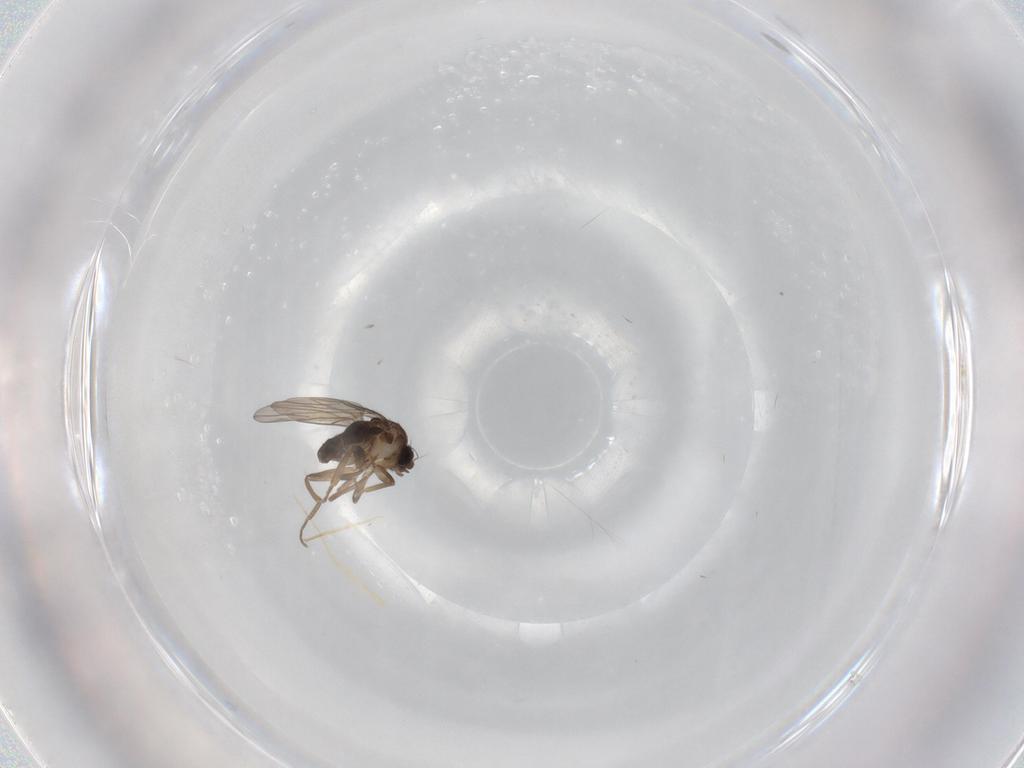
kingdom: Animalia
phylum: Arthropoda
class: Insecta
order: Diptera
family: Phoridae
